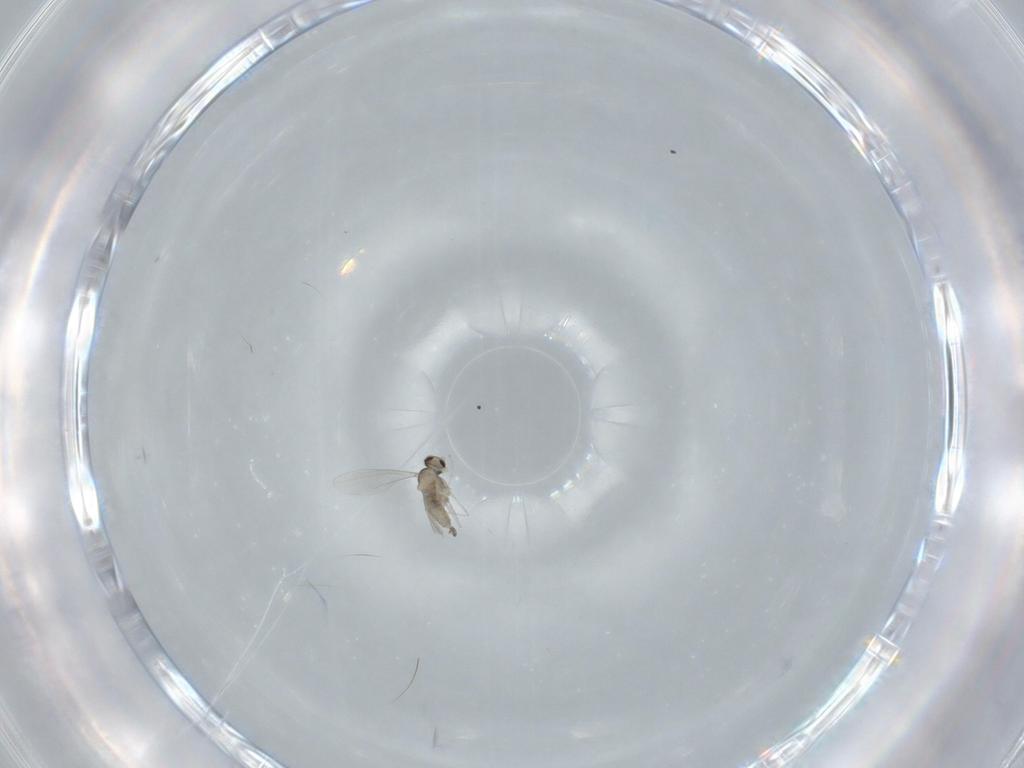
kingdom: Animalia
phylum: Arthropoda
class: Insecta
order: Diptera
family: Cecidomyiidae
